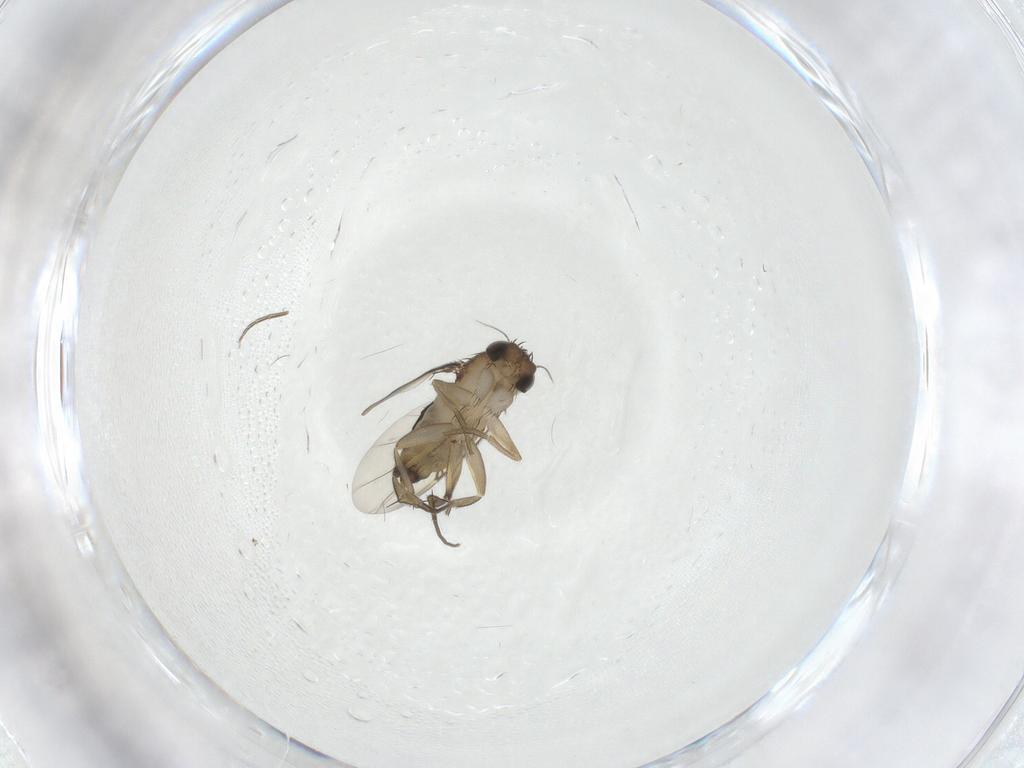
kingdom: Animalia
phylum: Arthropoda
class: Insecta
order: Diptera
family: Phoridae
